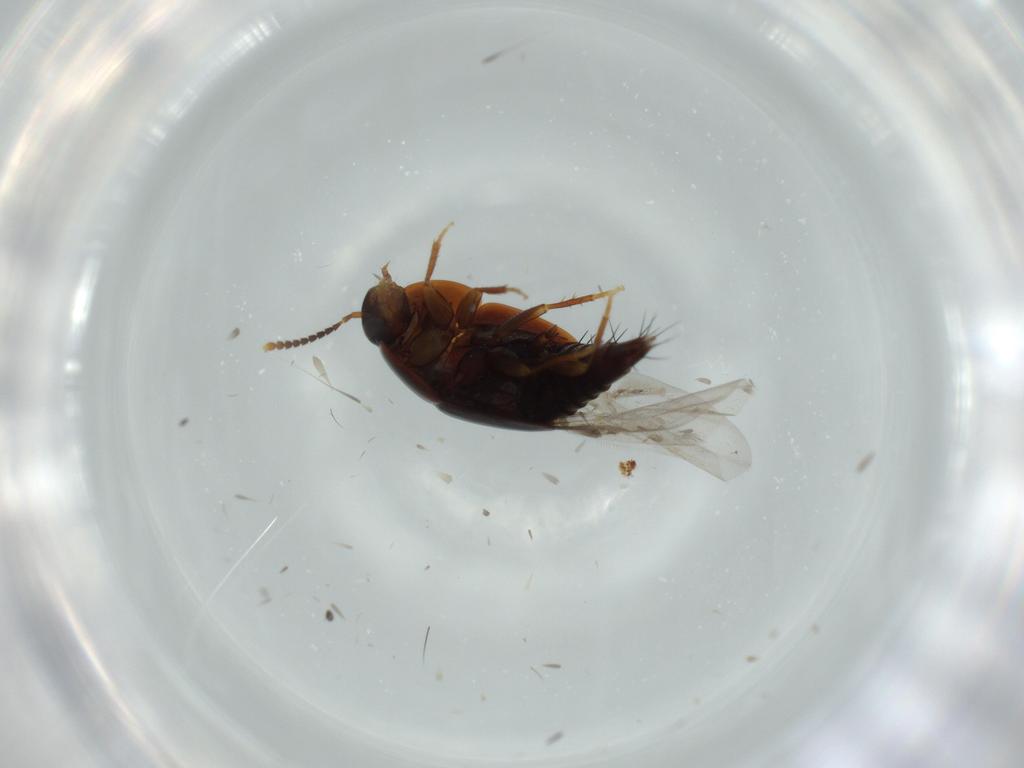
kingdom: Animalia
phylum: Arthropoda
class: Insecta
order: Coleoptera
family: Staphylinidae
